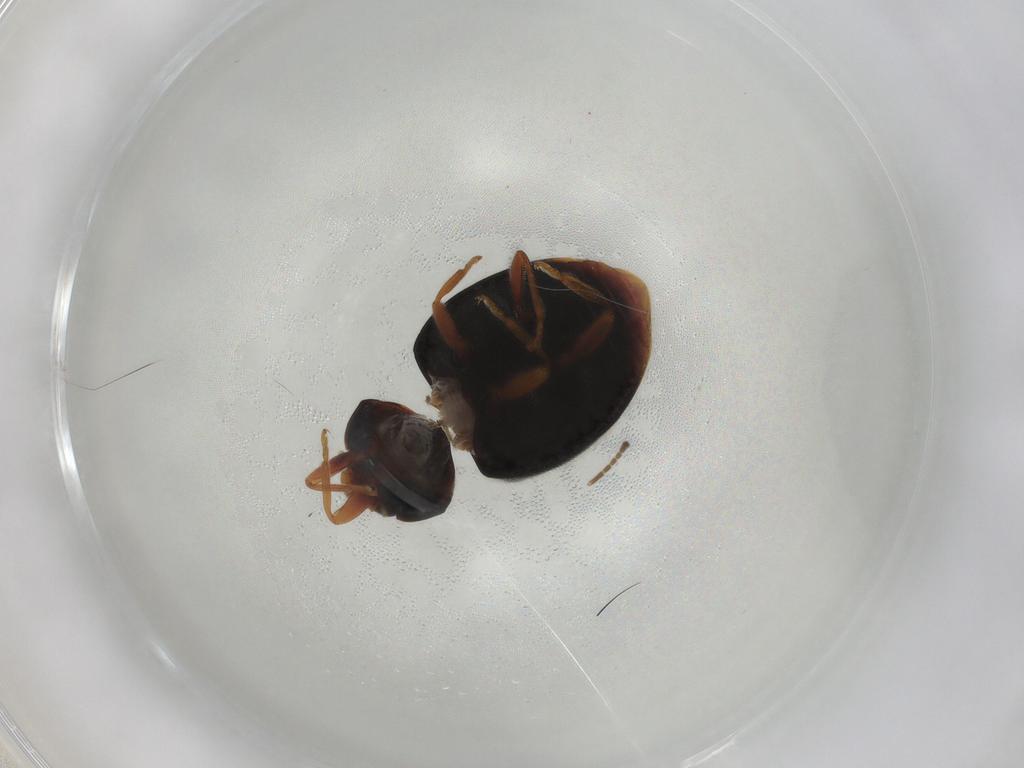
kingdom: Animalia
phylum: Arthropoda
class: Insecta
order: Coleoptera
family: Coccinellidae
